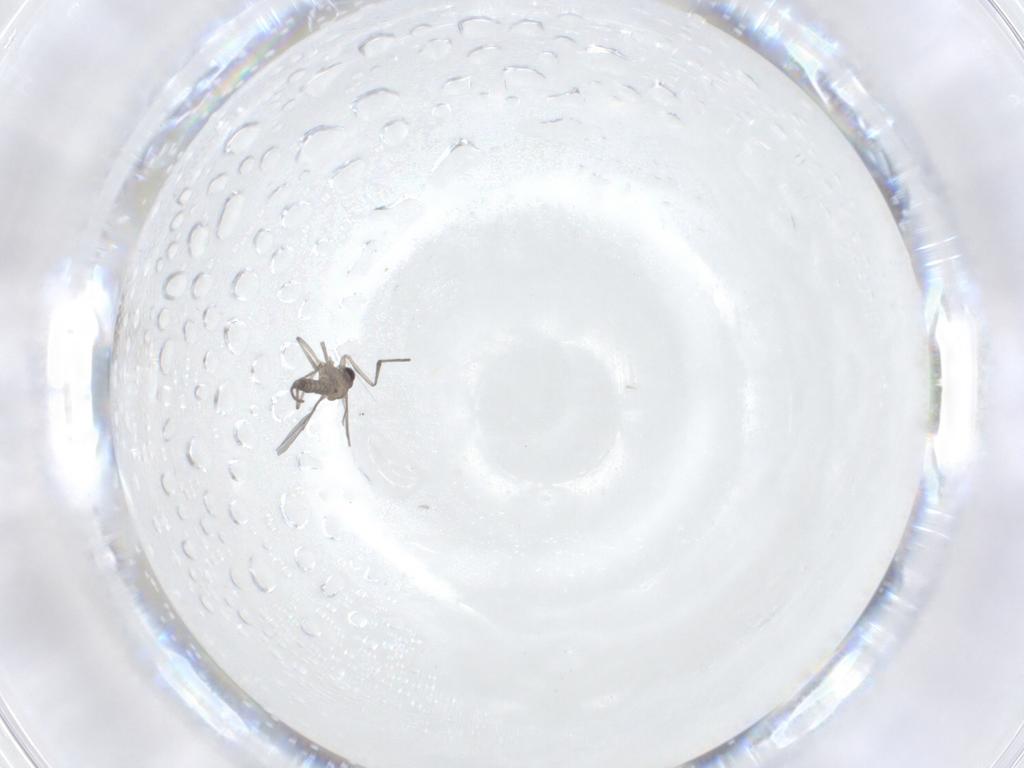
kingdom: Animalia
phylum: Arthropoda
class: Insecta
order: Diptera
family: Cecidomyiidae
